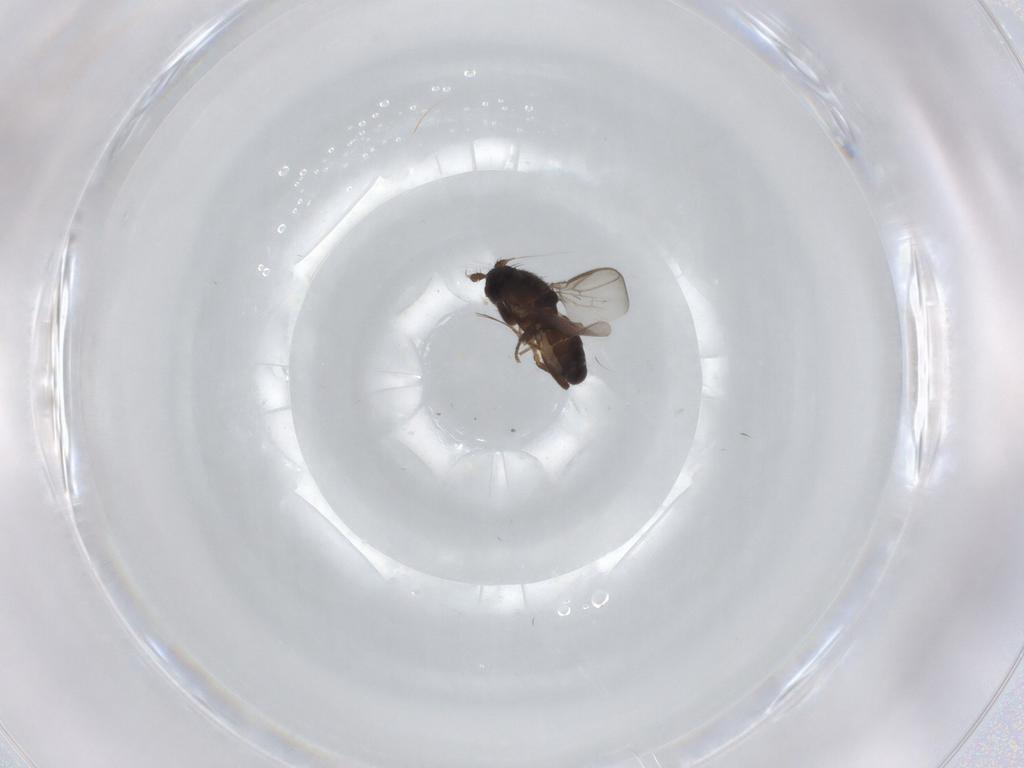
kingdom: Animalia
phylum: Arthropoda
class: Insecta
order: Diptera
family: Sphaeroceridae
